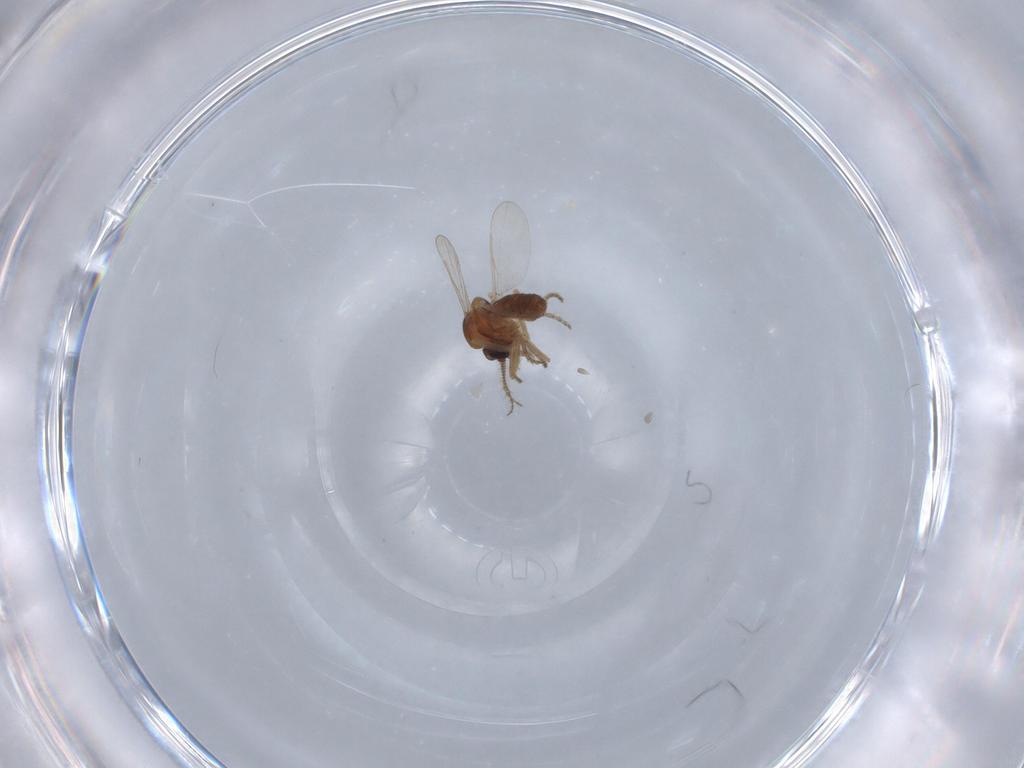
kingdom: Animalia
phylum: Arthropoda
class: Insecta
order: Diptera
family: Ceratopogonidae
